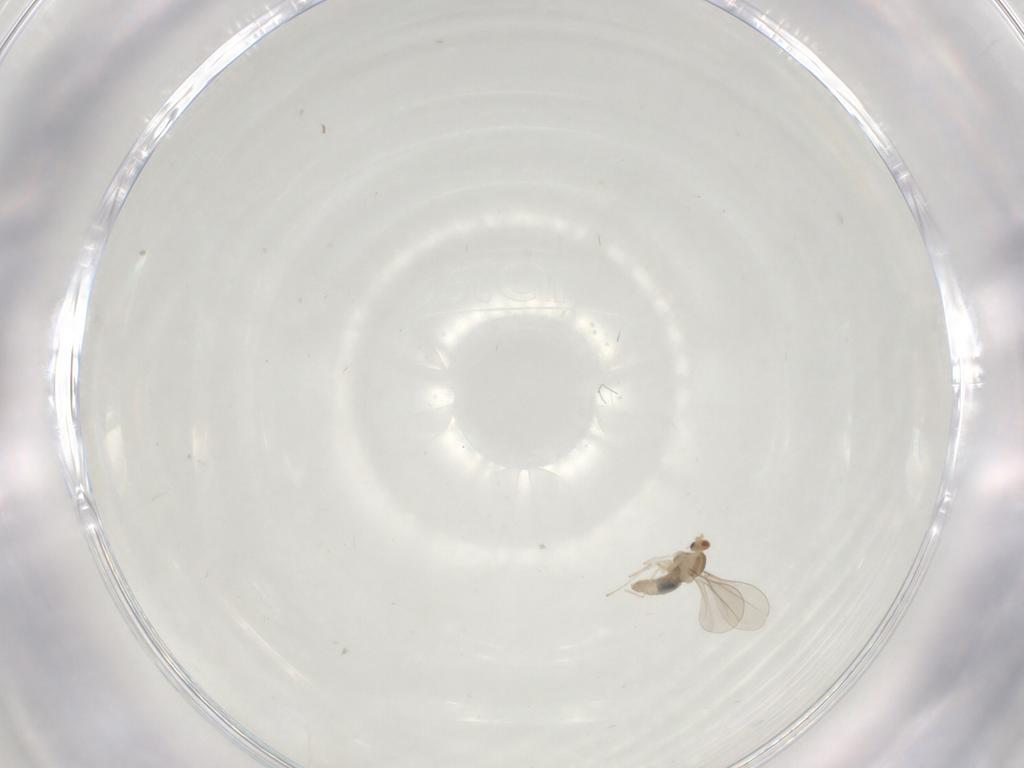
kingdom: Animalia
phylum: Arthropoda
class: Insecta
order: Diptera
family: Cecidomyiidae
